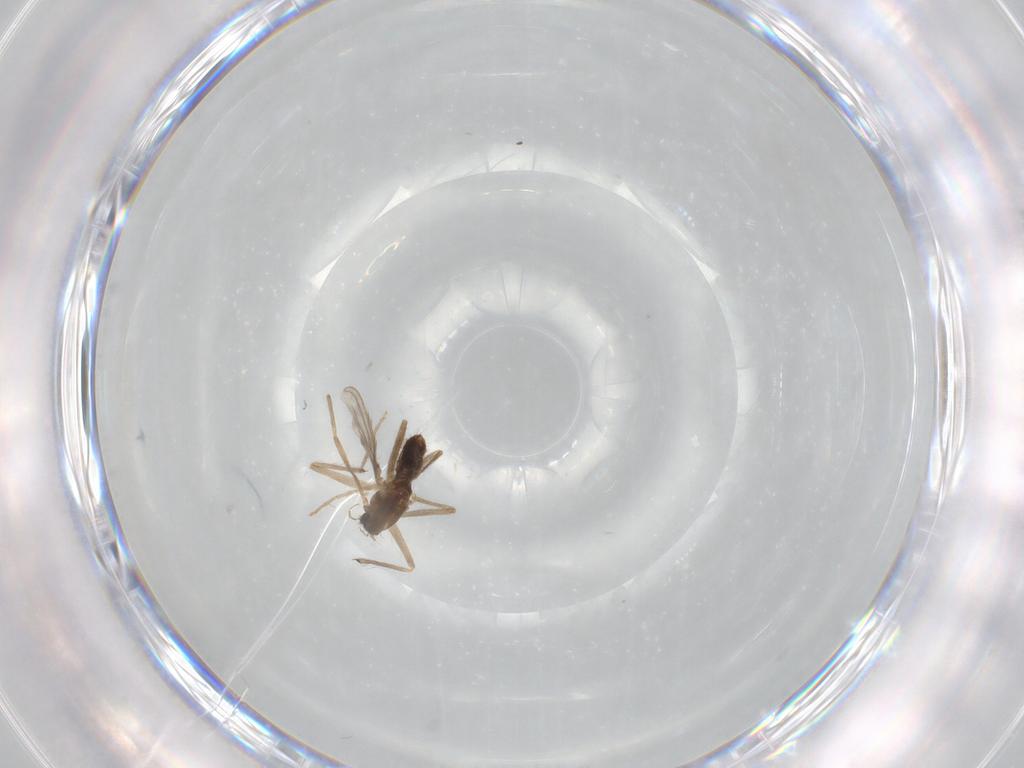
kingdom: Animalia
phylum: Arthropoda
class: Insecta
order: Diptera
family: Chironomidae
